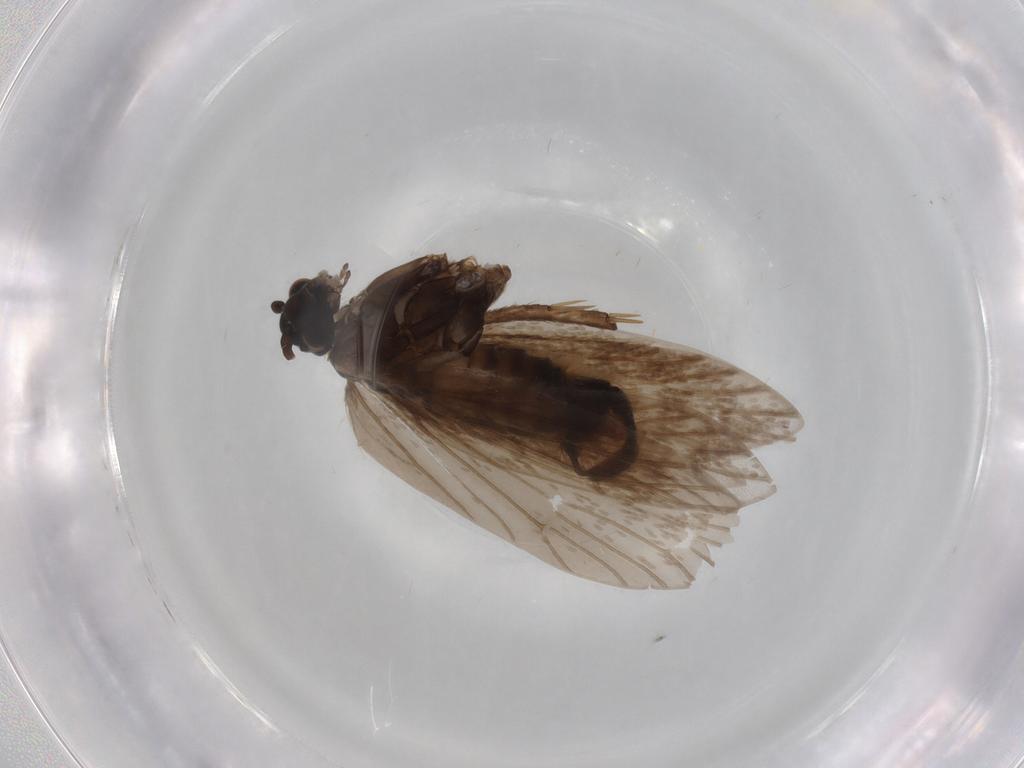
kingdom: Animalia
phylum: Arthropoda
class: Insecta
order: Lepidoptera
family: Micropterigidae
